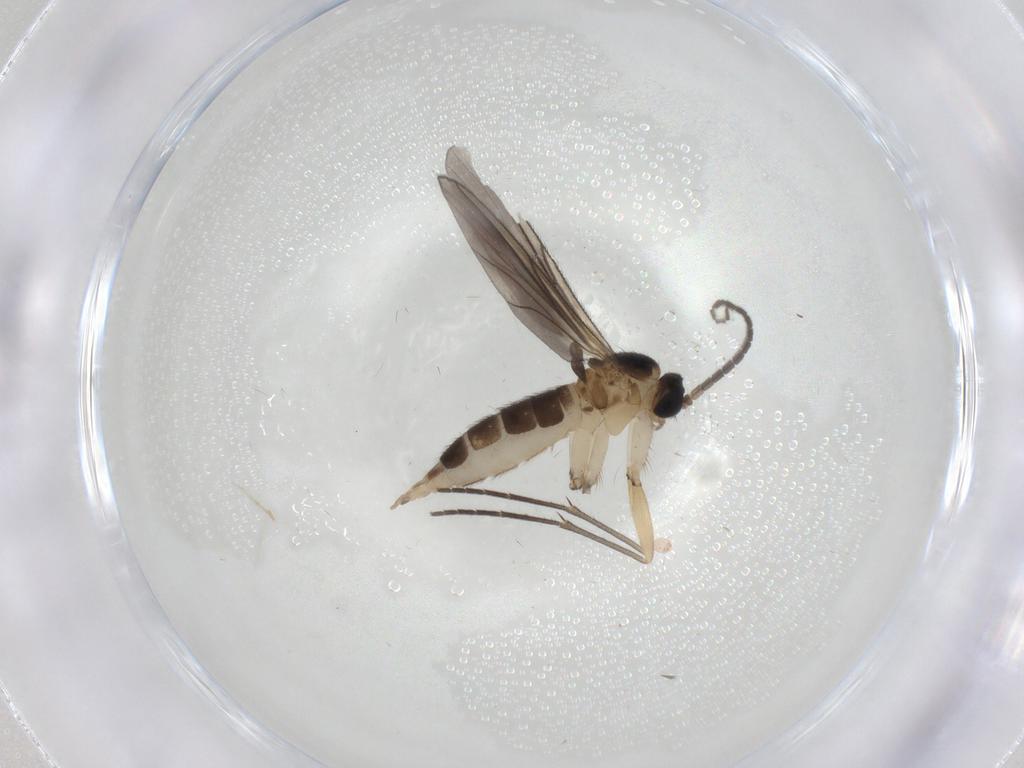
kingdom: Animalia
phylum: Arthropoda
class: Insecta
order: Diptera
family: Sciaridae
